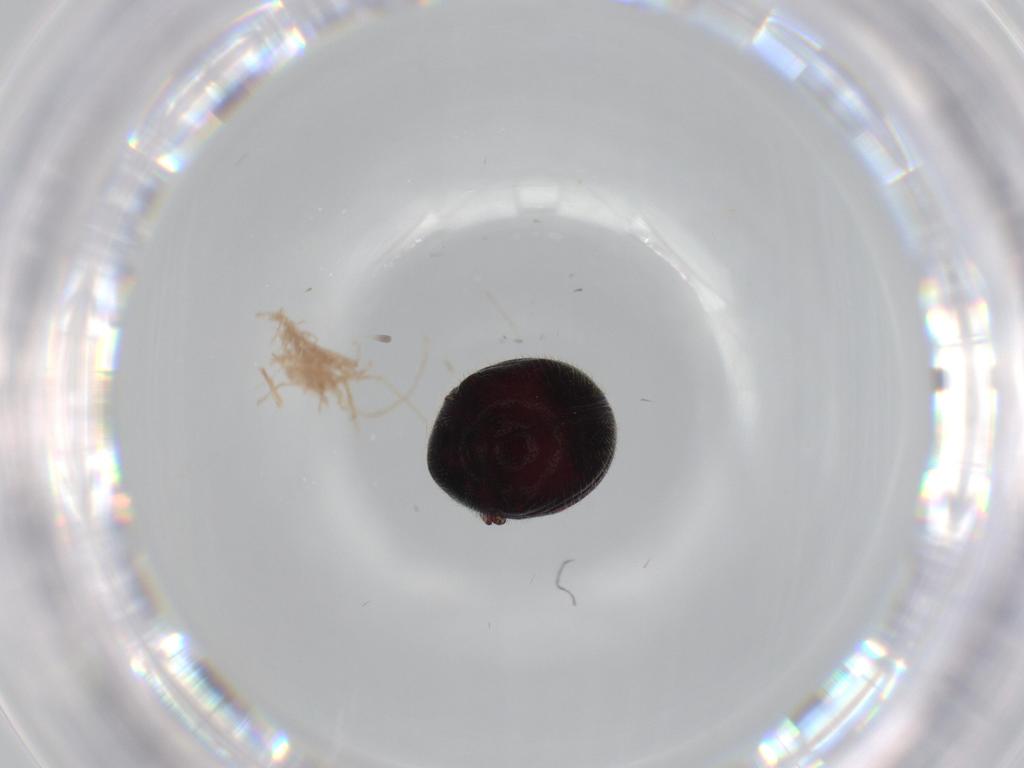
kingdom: Animalia
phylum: Arthropoda
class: Insecta
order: Coleoptera
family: Meloidae
